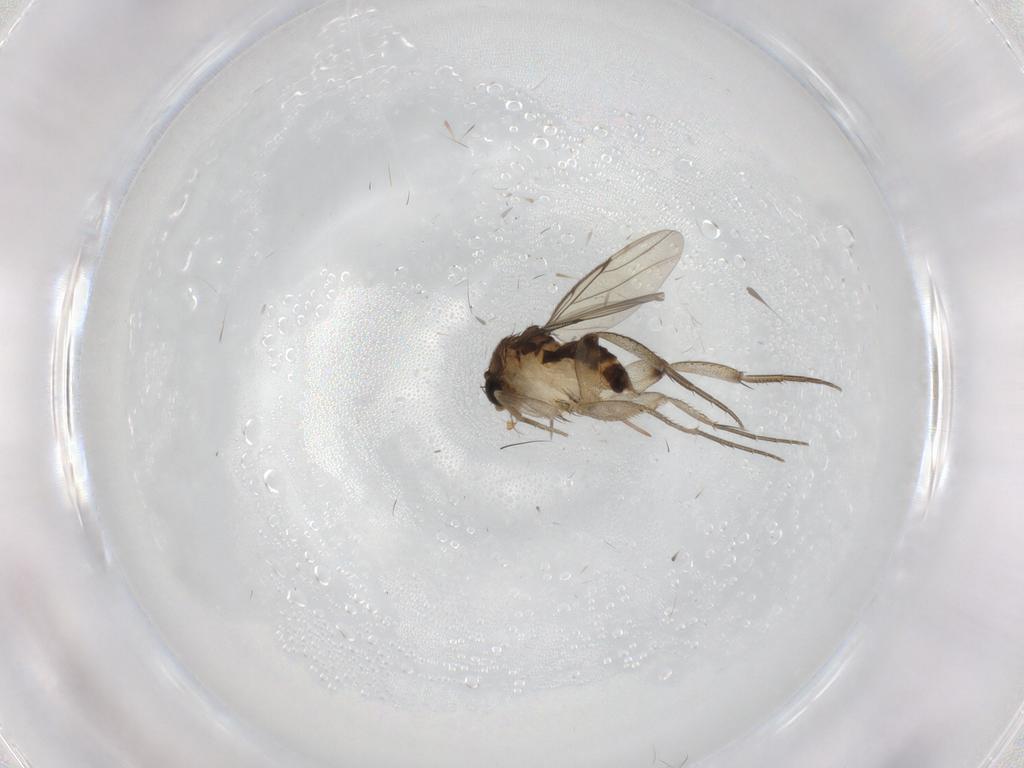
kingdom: Animalia
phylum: Arthropoda
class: Insecta
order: Diptera
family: Phoridae
